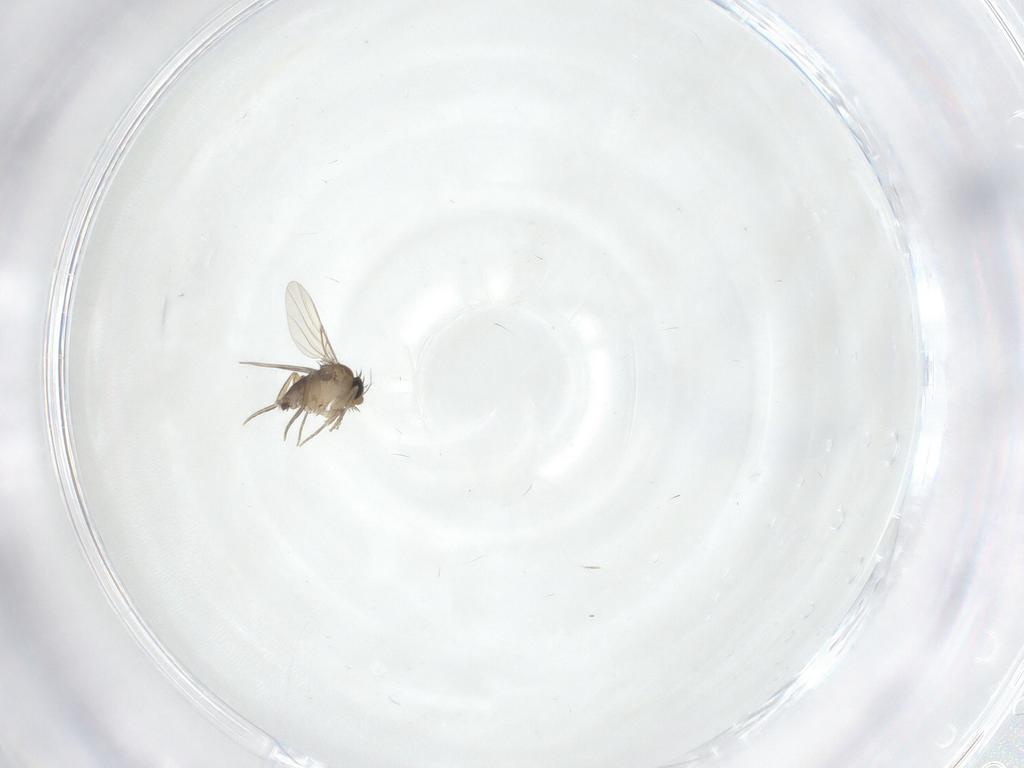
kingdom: Animalia
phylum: Arthropoda
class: Insecta
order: Diptera
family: Phoridae
